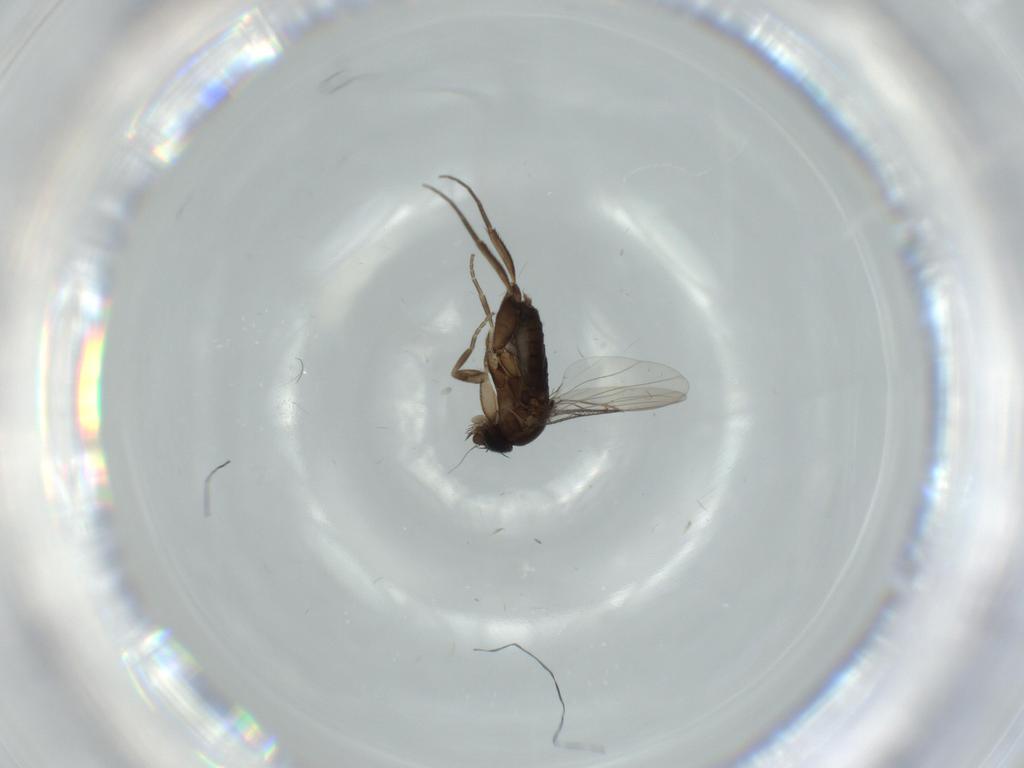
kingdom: Animalia
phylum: Arthropoda
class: Insecta
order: Diptera
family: Phoridae
